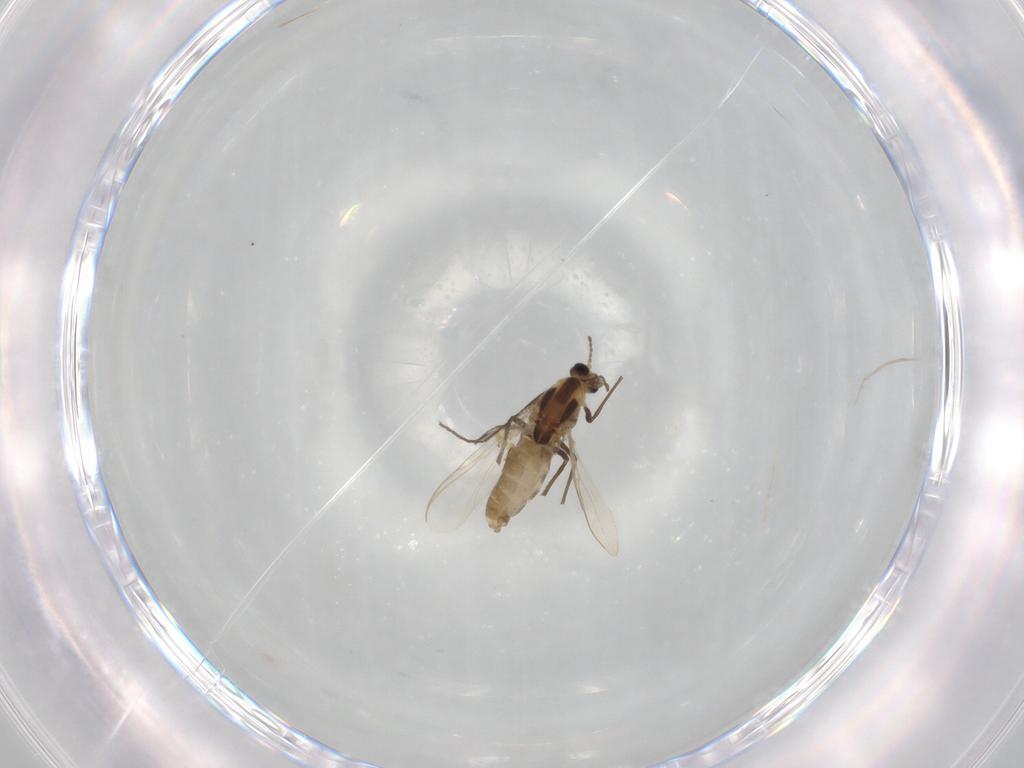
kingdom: Animalia
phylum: Arthropoda
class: Insecta
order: Diptera
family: Chironomidae
